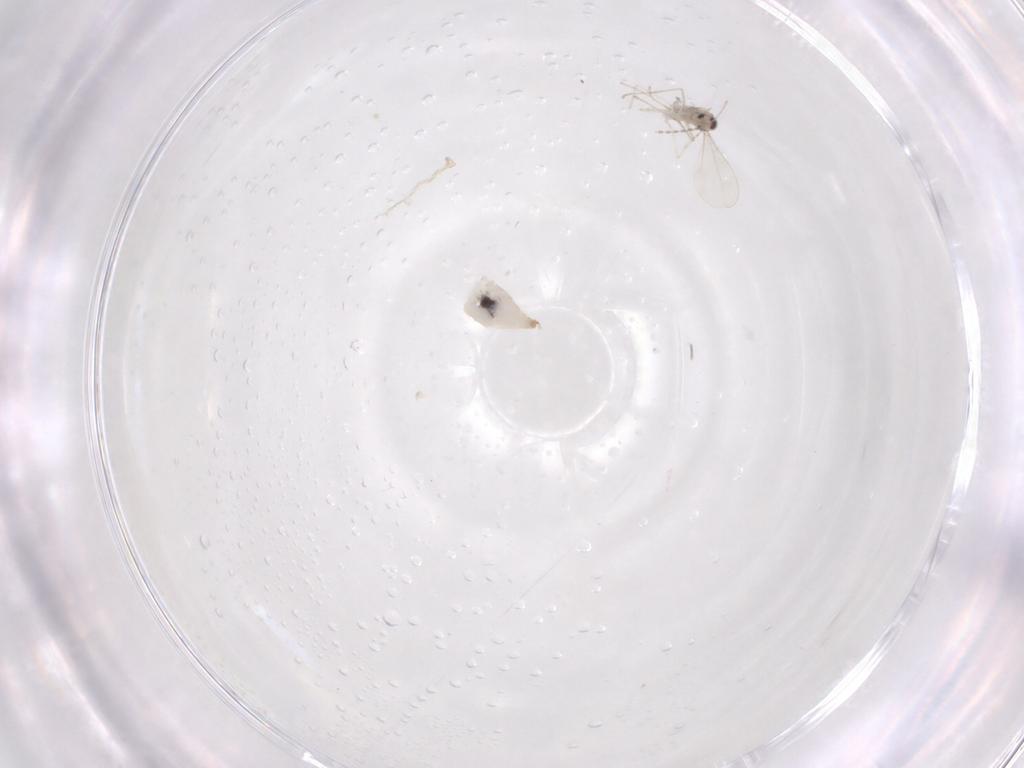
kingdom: Animalia
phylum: Arthropoda
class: Insecta
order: Diptera
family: Cecidomyiidae
